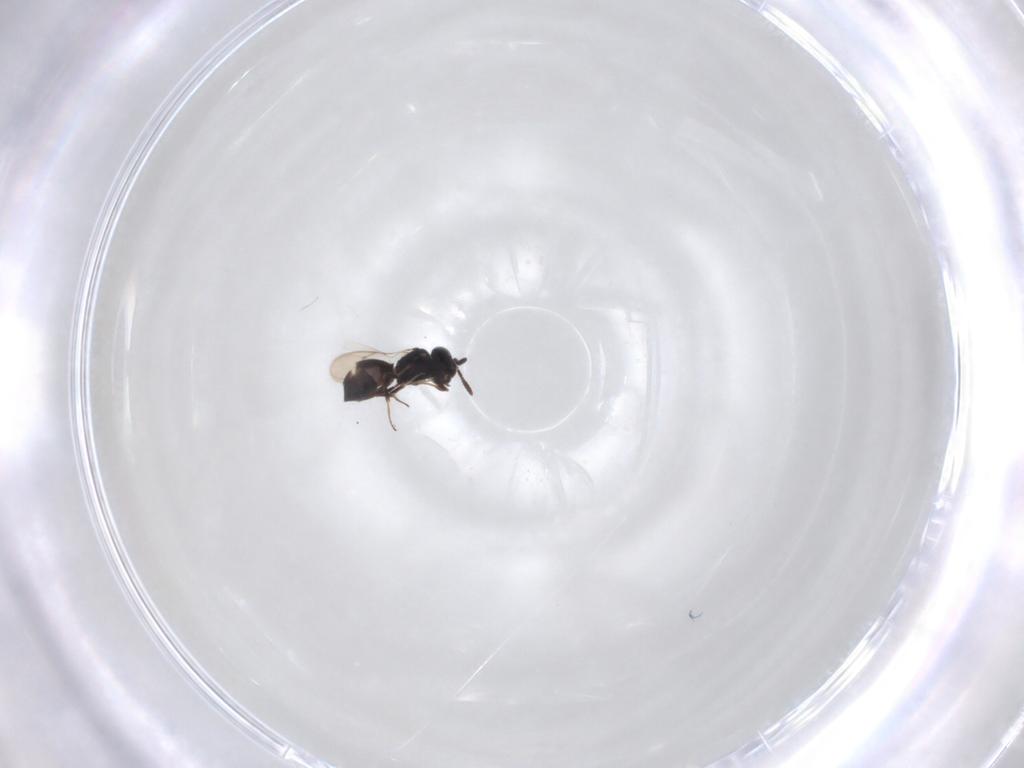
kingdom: Animalia
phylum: Arthropoda
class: Insecta
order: Hymenoptera
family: Scelionidae
